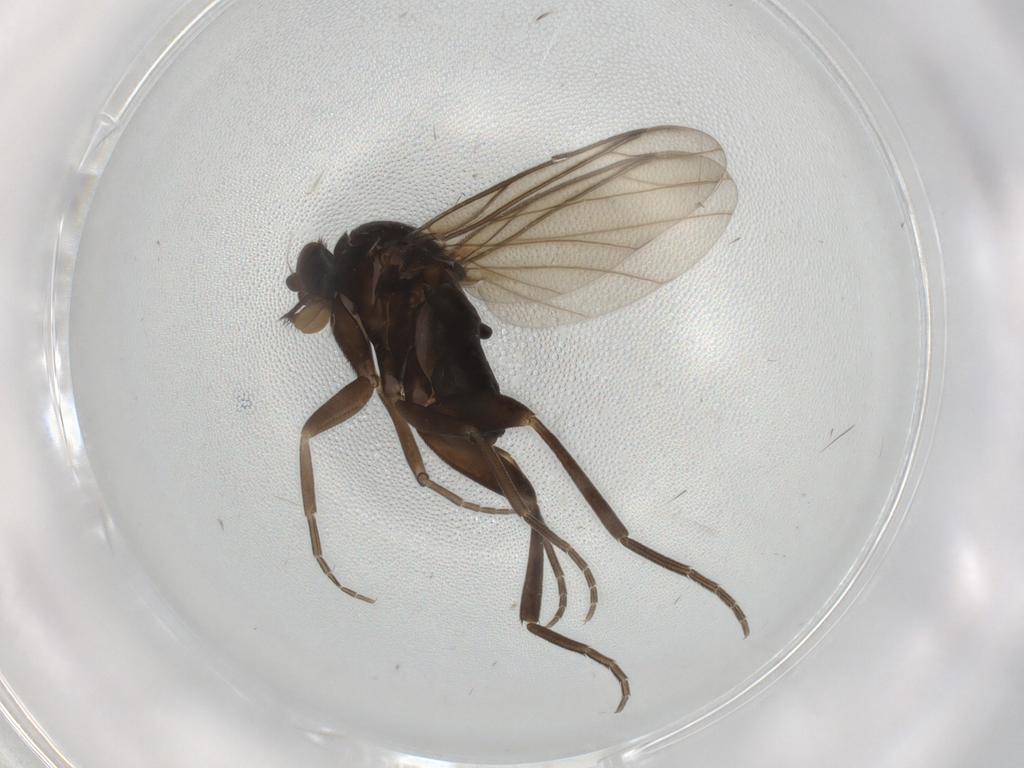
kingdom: Animalia
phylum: Arthropoda
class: Insecta
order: Diptera
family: Phoridae
